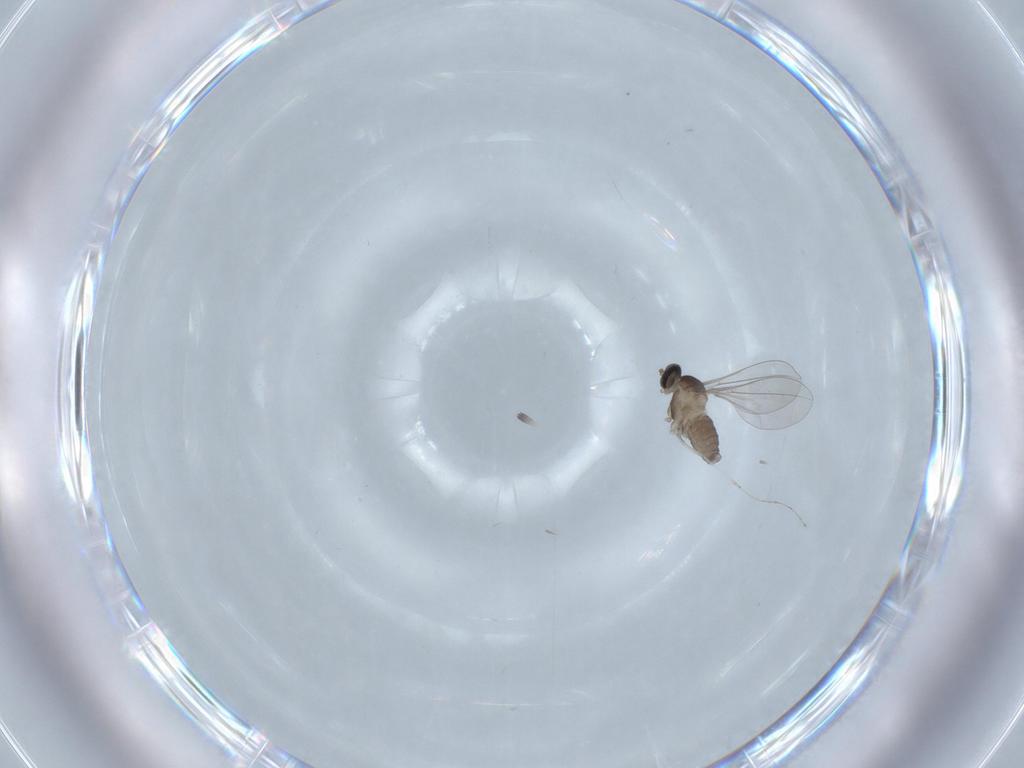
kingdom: Animalia
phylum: Arthropoda
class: Insecta
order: Diptera
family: Cecidomyiidae
